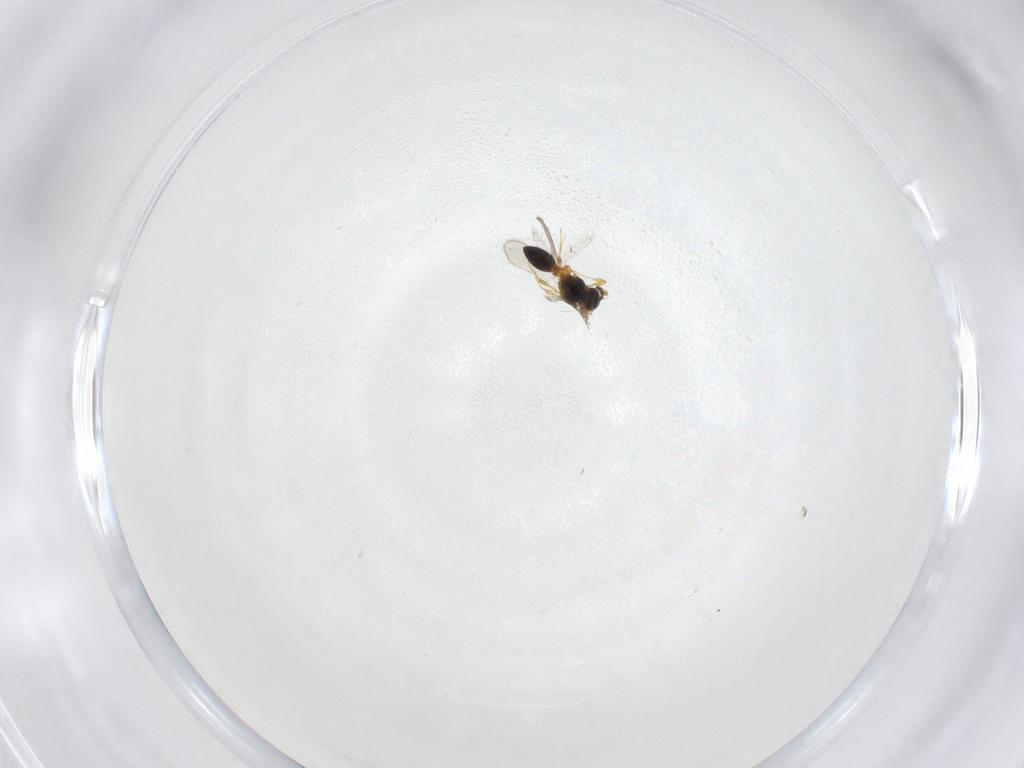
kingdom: Animalia
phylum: Arthropoda
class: Insecta
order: Hymenoptera
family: Platygastridae
